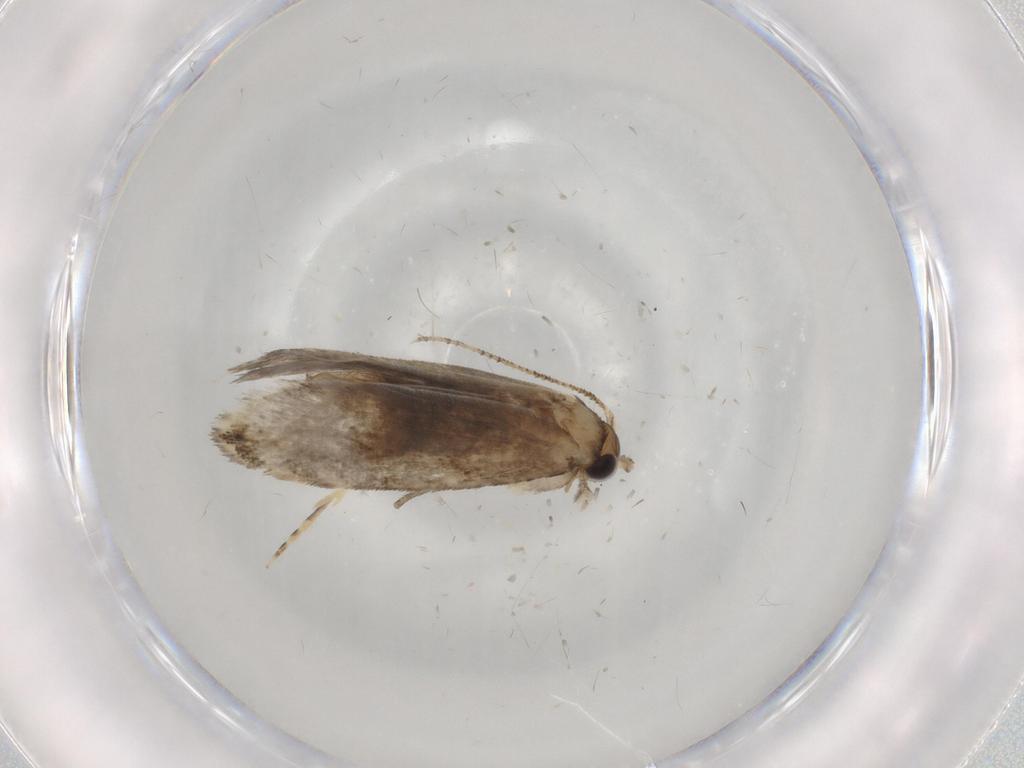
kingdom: Animalia
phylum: Arthropoda
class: Insecta
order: Lepidoptera
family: Tineidae
